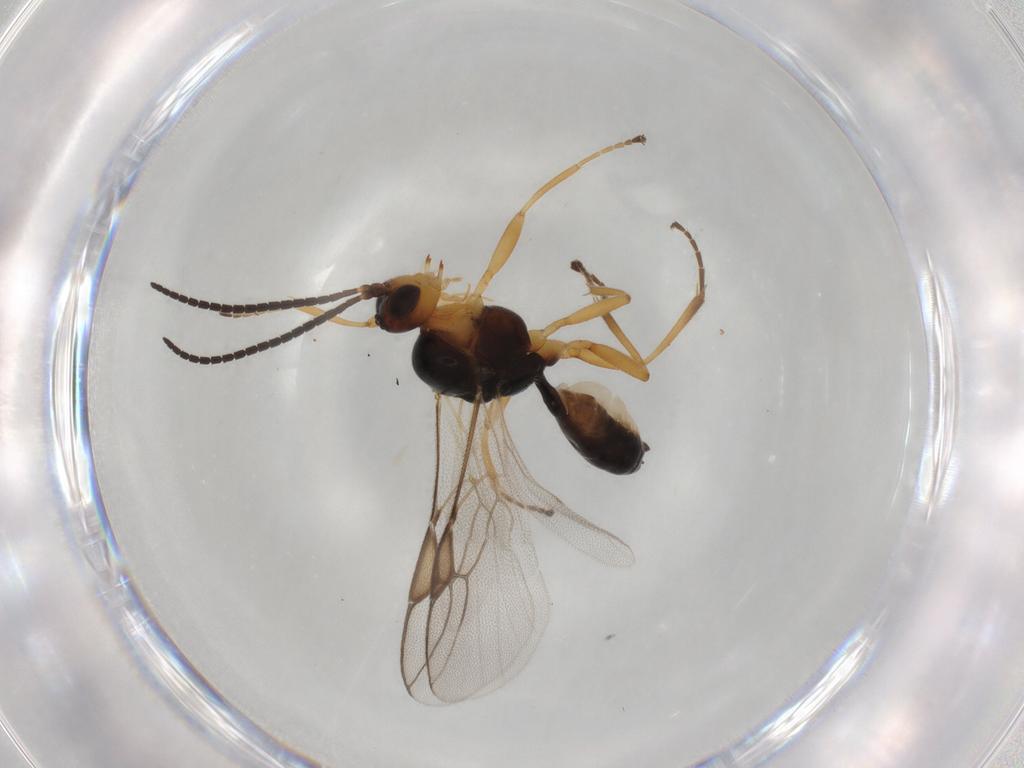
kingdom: Animalia
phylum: Arthropoda
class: Insecta
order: Hymenoptera
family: Braconidae
